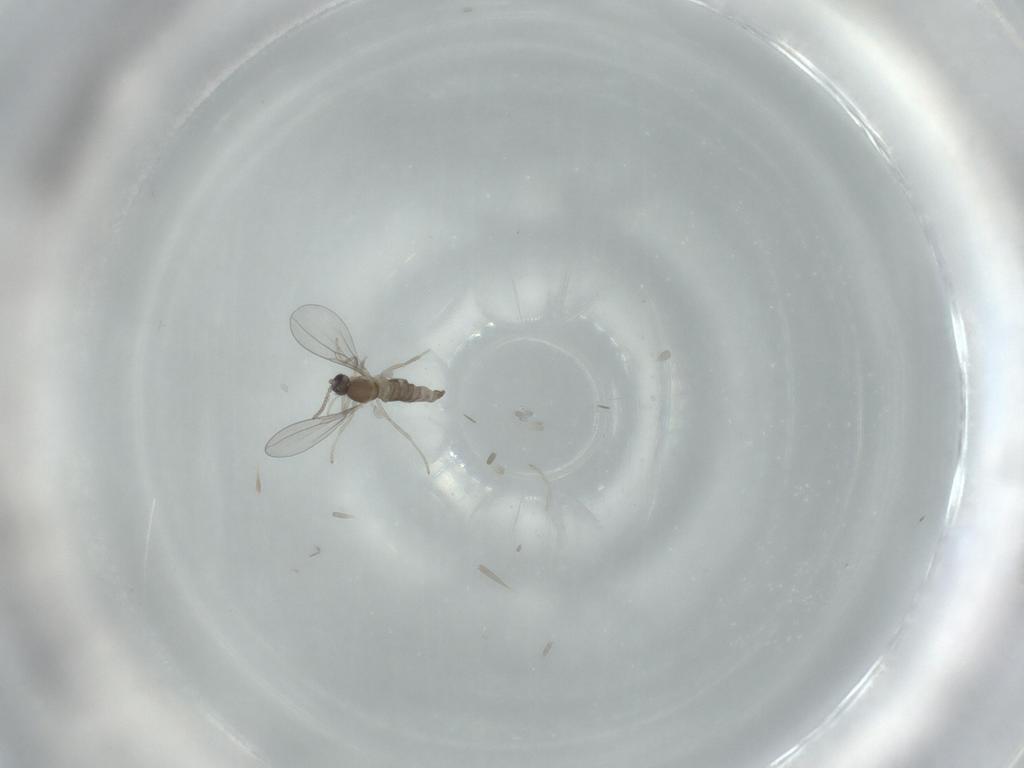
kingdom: Animalia
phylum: Arthropoda
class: Insecta
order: Diptera
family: Cecidomyiidae
